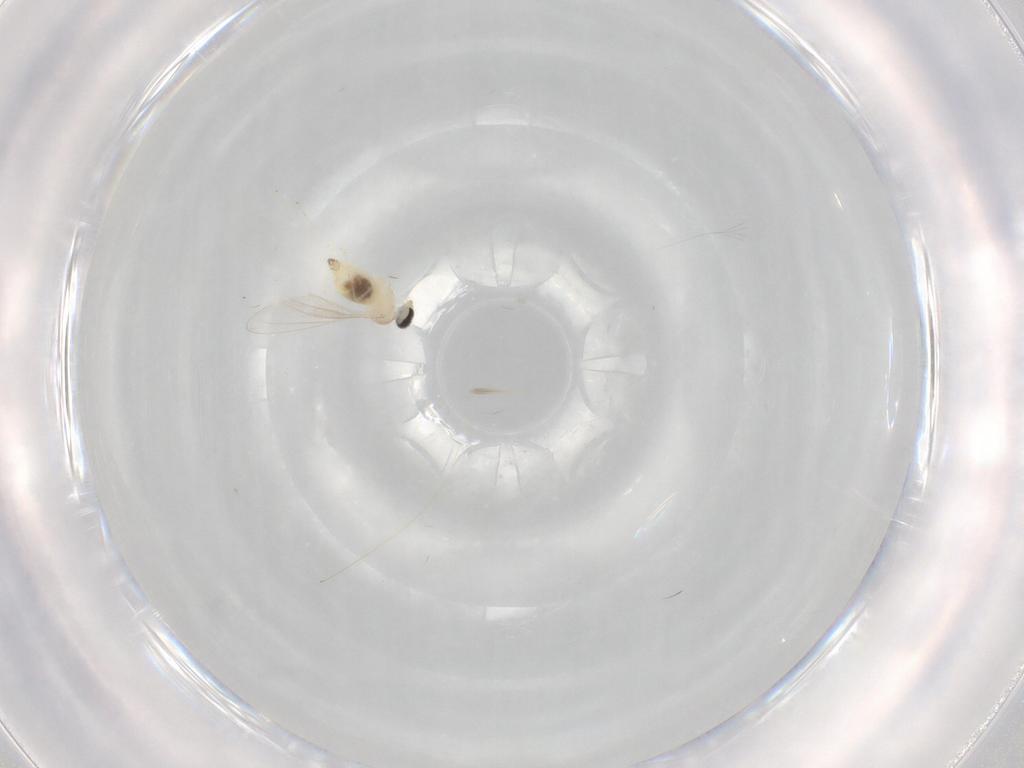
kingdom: Animalia
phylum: Arthropoda
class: Insecta
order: Diptera
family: Cecidomyiidae
